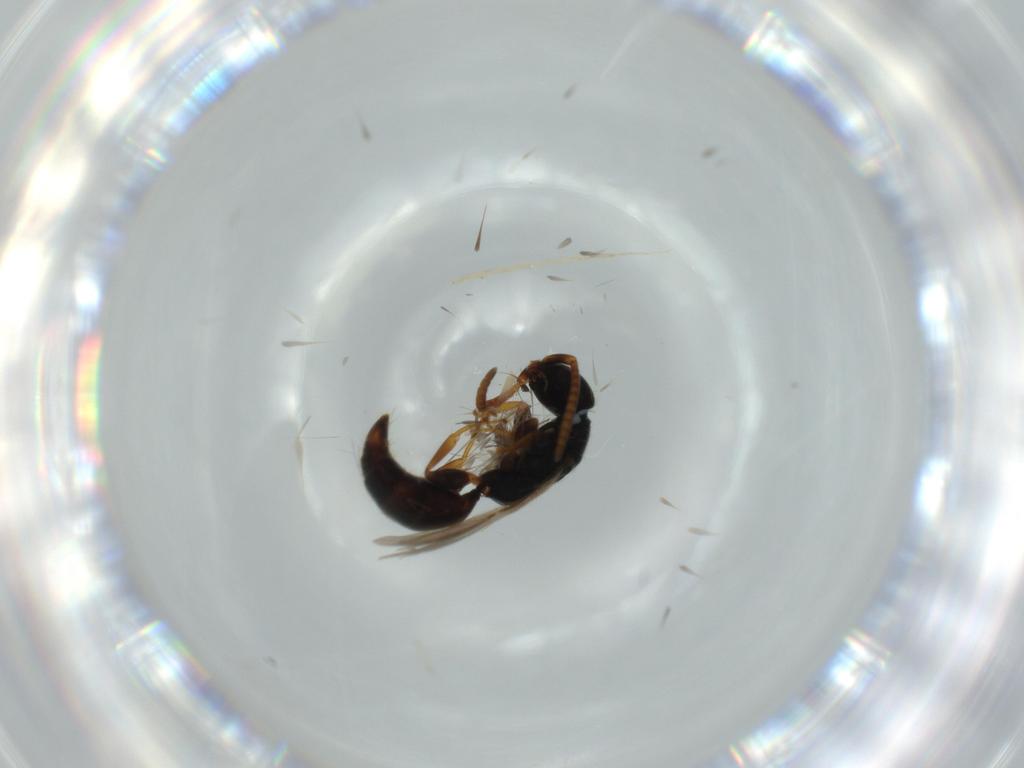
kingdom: Animalia
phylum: Arthropoda
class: Insecta
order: Hymenoptera
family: Bethylidae
